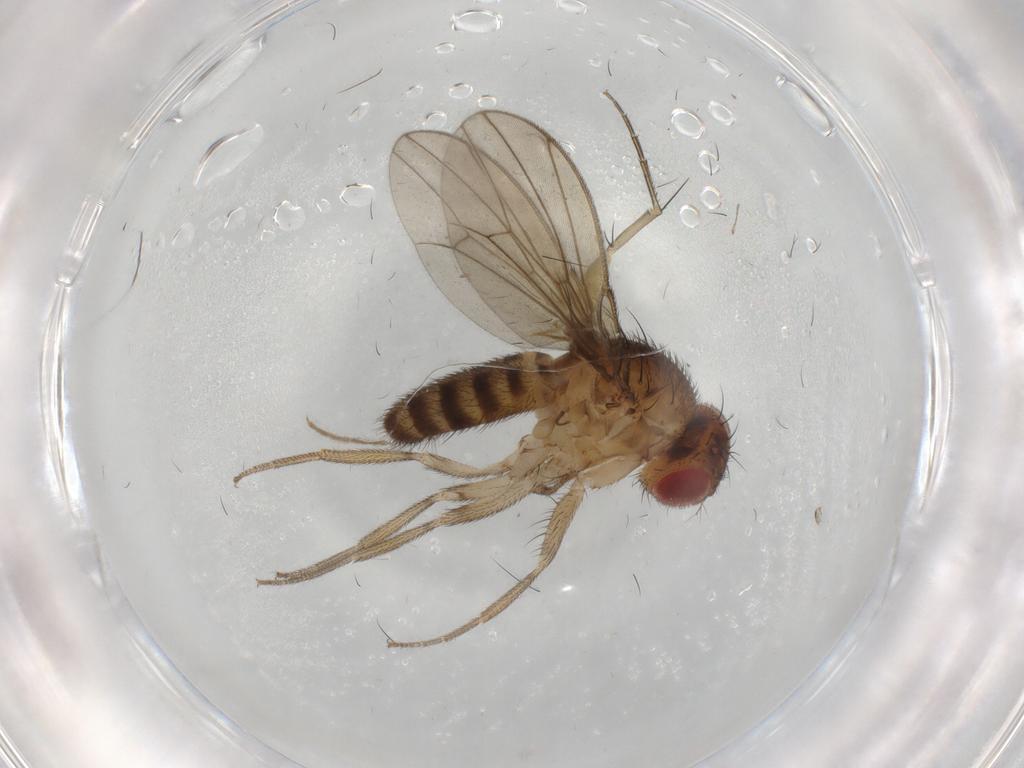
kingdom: Animalia
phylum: Arthropoda
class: Insecta
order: Diptera
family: Drosophilidae
